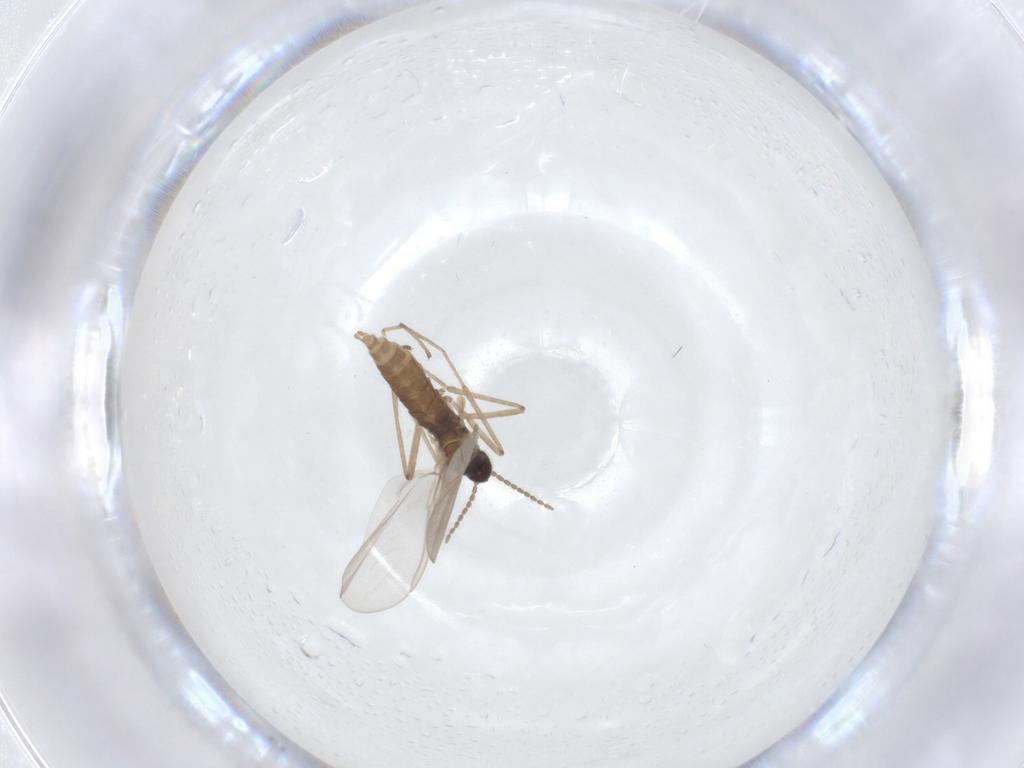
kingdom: Animalia
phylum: Arthropoda
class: Insecta
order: Diptera
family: Cecidomyiidae
